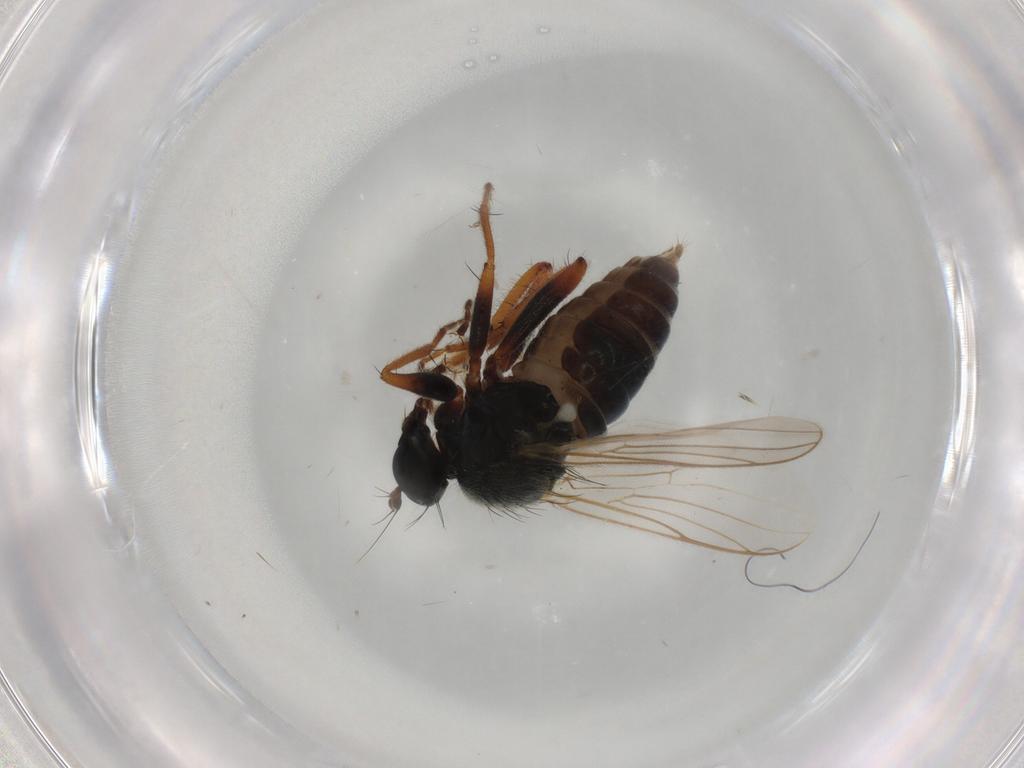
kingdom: Animalia
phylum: Arthropoda
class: Insecta
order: Diptera
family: Hybotidae
